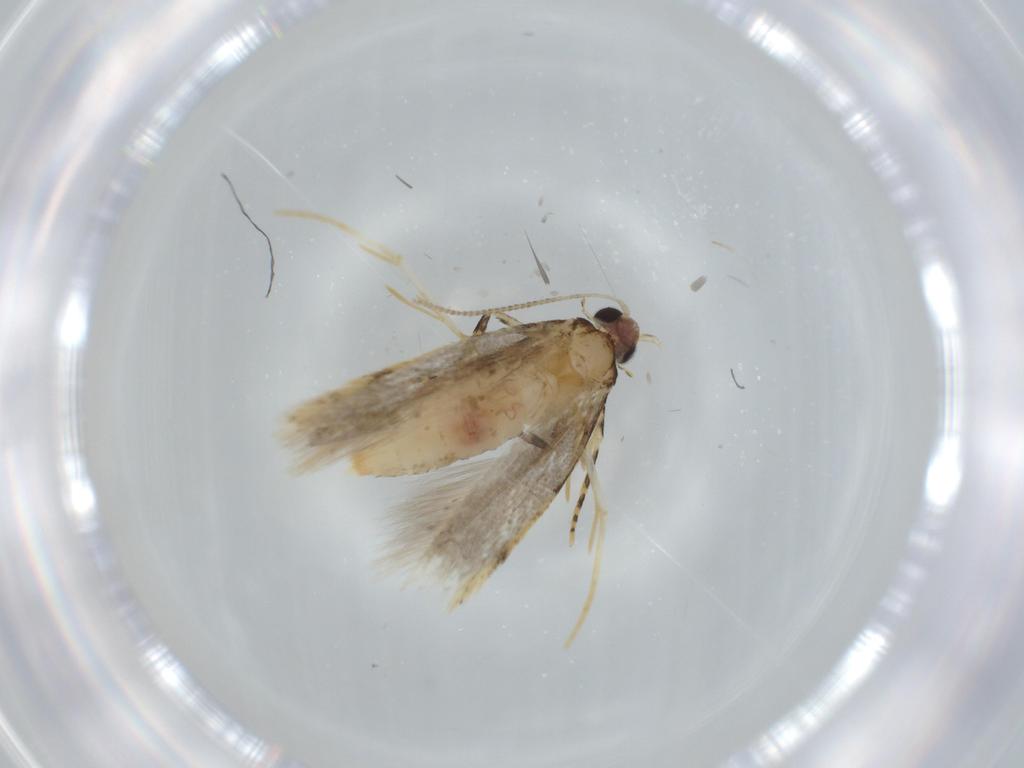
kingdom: Animalia
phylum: Arthropoda
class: Insecta
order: Lepidoptera
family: Tineidae
